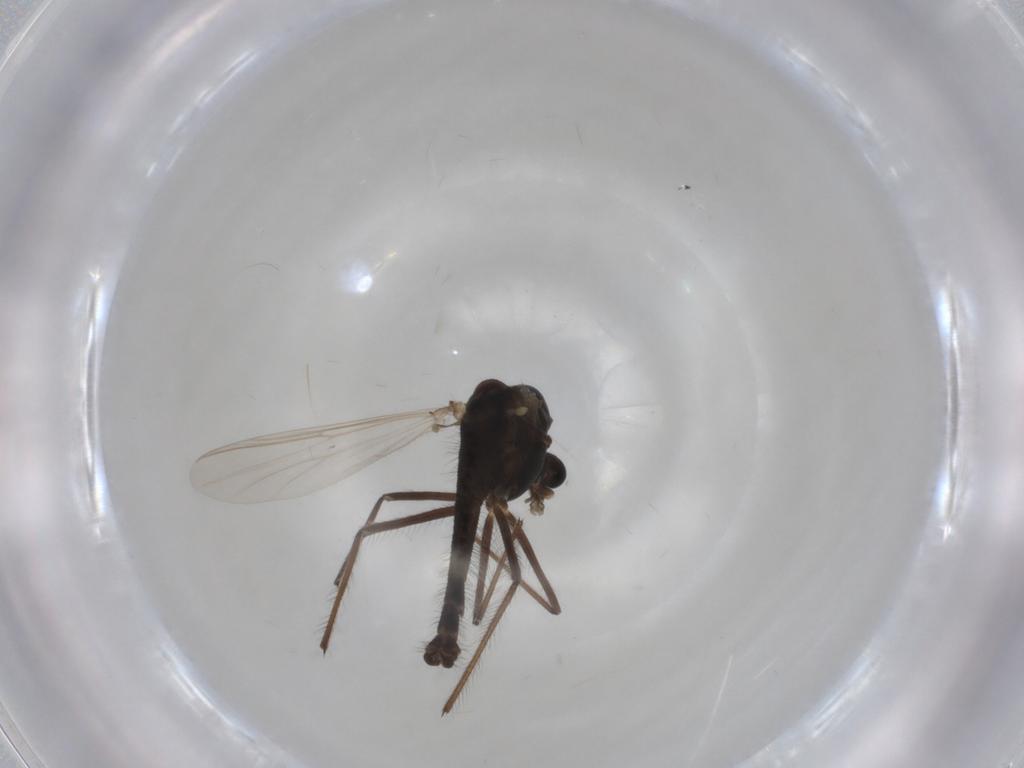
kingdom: Animalia
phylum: Arthropoda
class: Insecta
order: Diptera
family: Chironomidae
